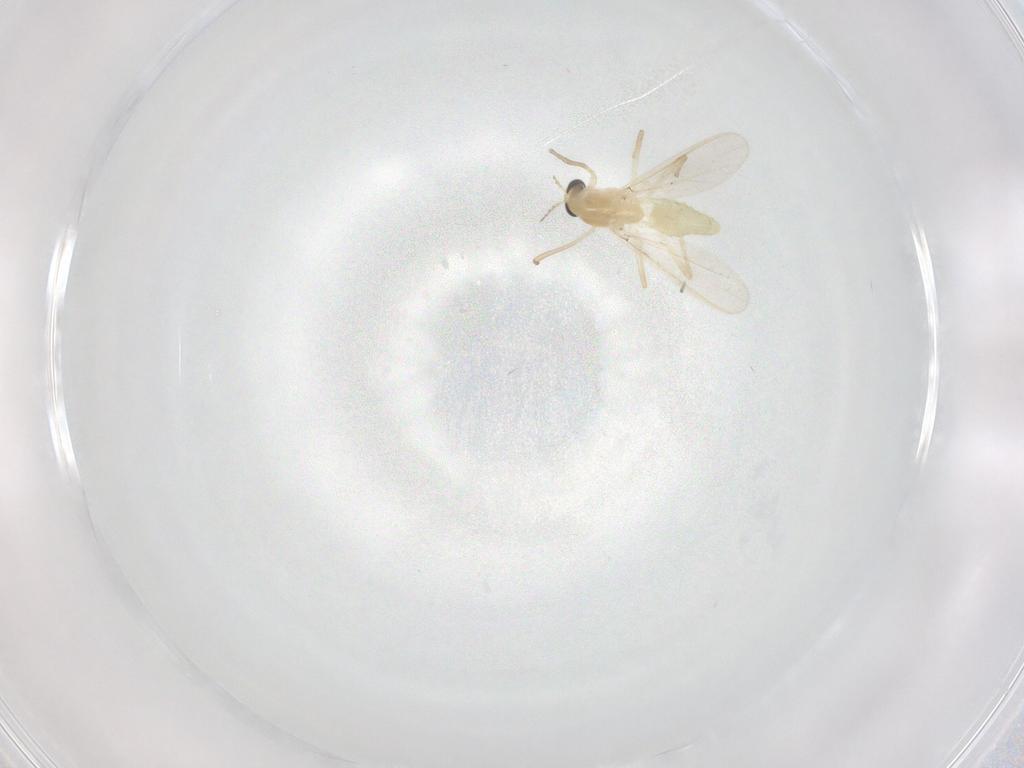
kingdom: Animalia
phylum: Arthropoda
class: Insecta
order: Diptera
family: Chironomidae
